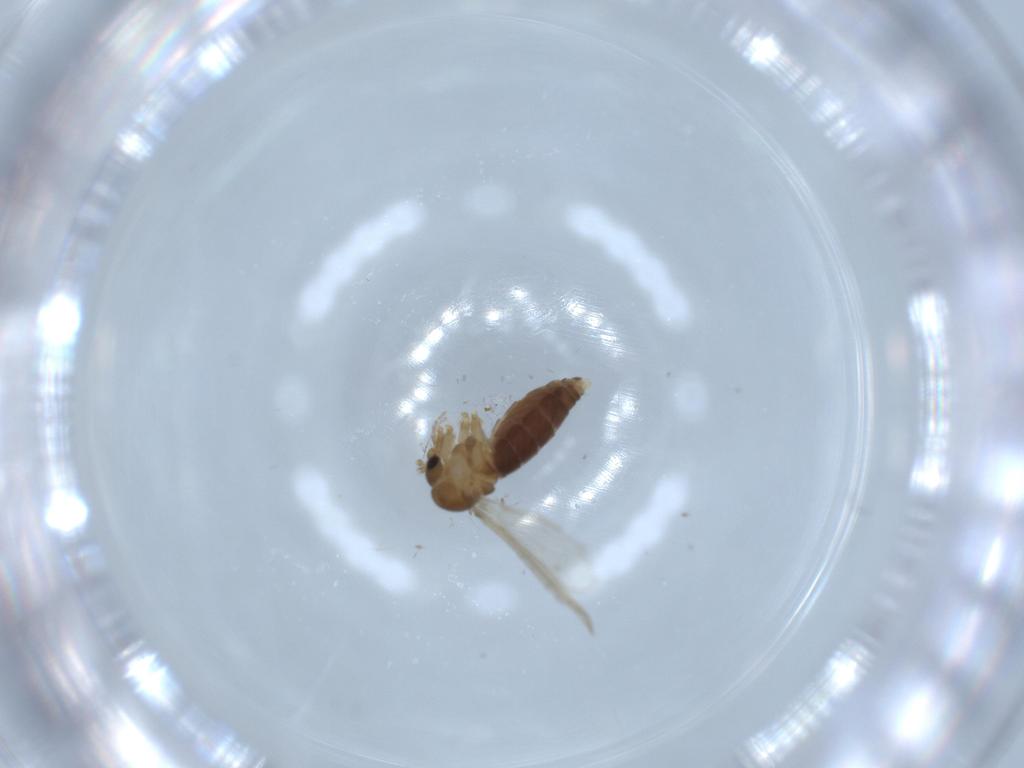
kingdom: Animalia
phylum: Arthropoda
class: Insecta
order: Diptera
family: Psychodidae
